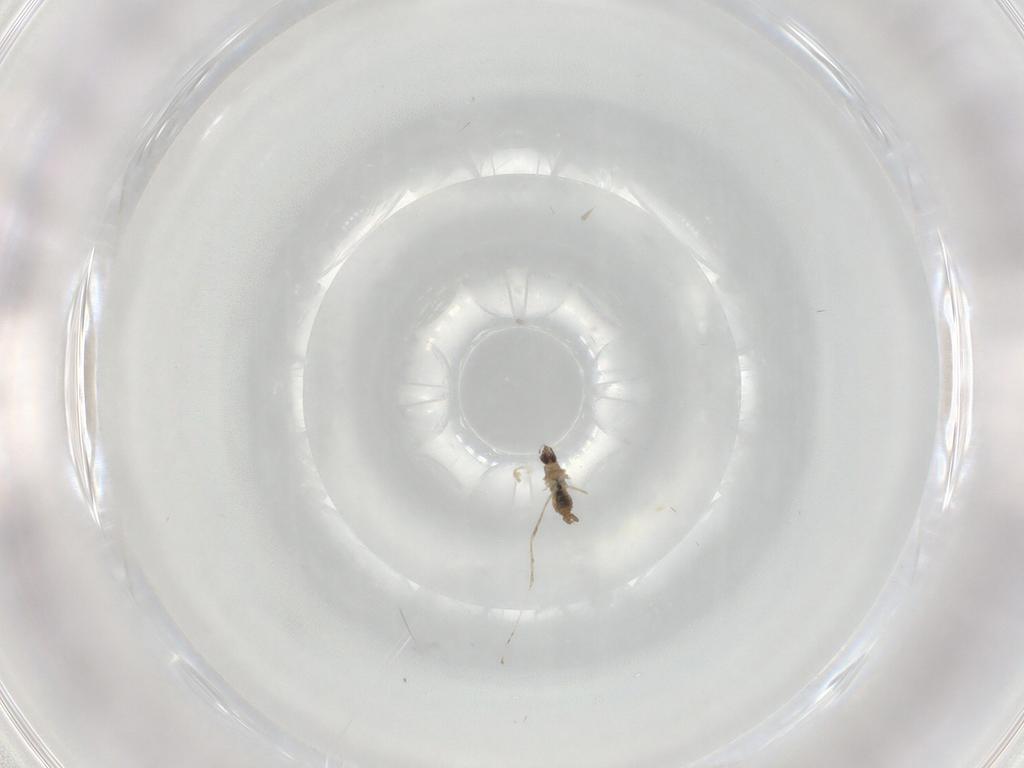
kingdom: Animalia
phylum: Arthropoda
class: Insecta
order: Diptera
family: Cecidomyiidae
